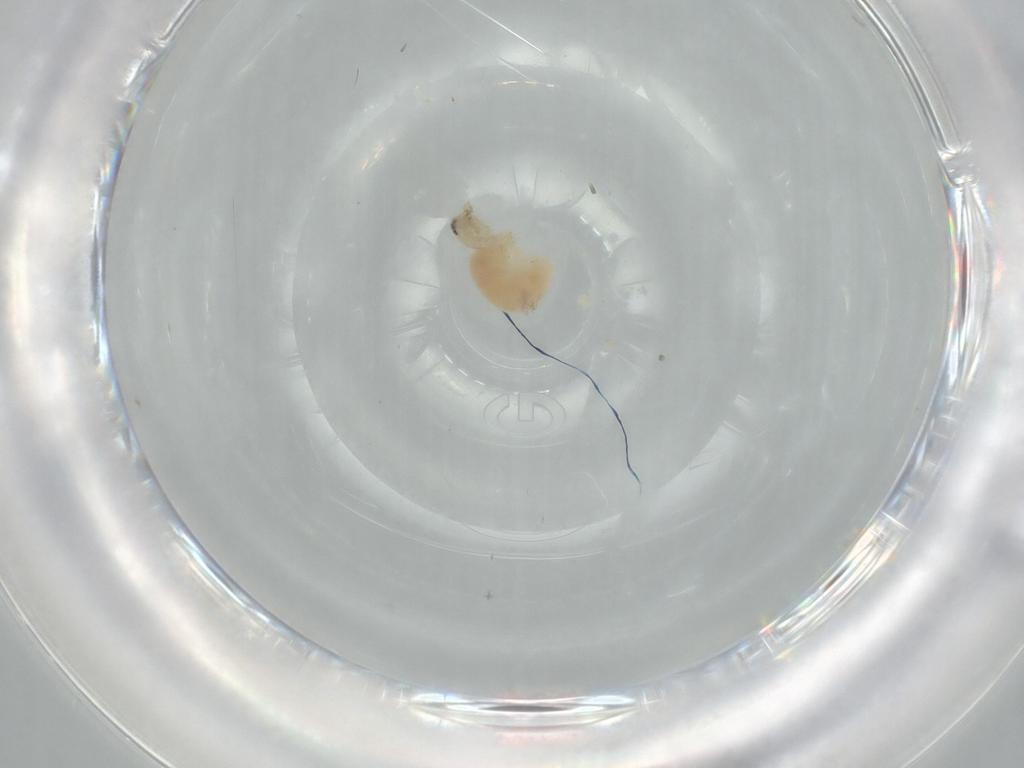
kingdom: Animalia
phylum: Arthropoda
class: Arachnida
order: Araneae
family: Oonopidae
